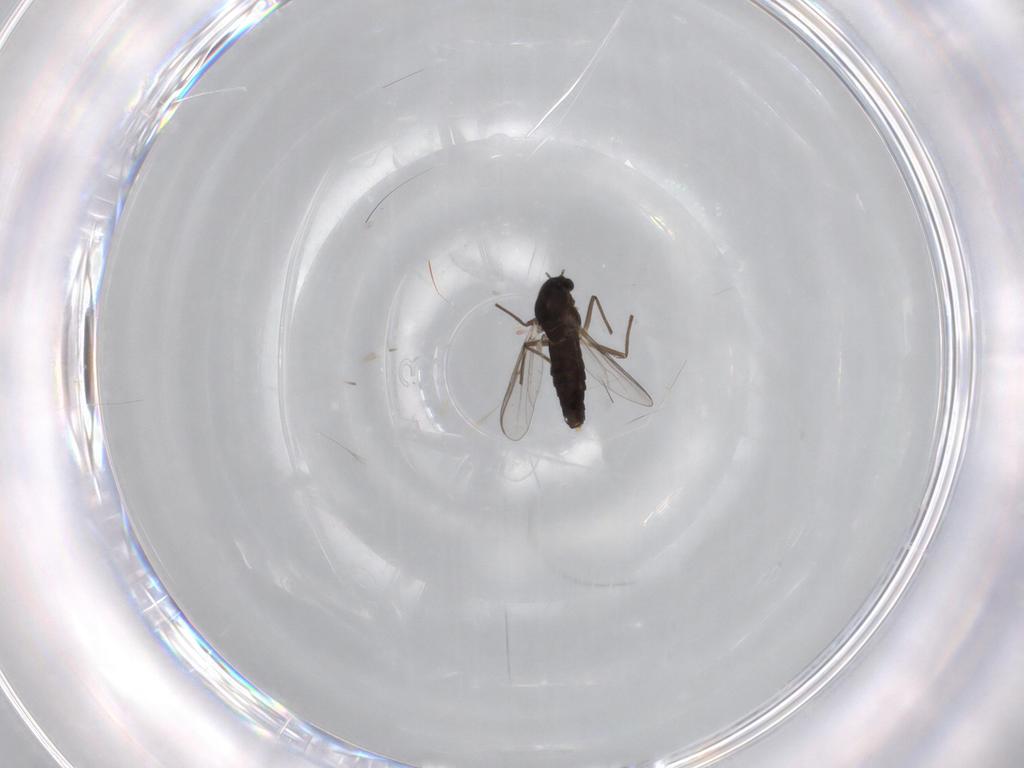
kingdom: Animalia
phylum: Arthropoda
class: Insecta
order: Diptera
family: Chironomidae
